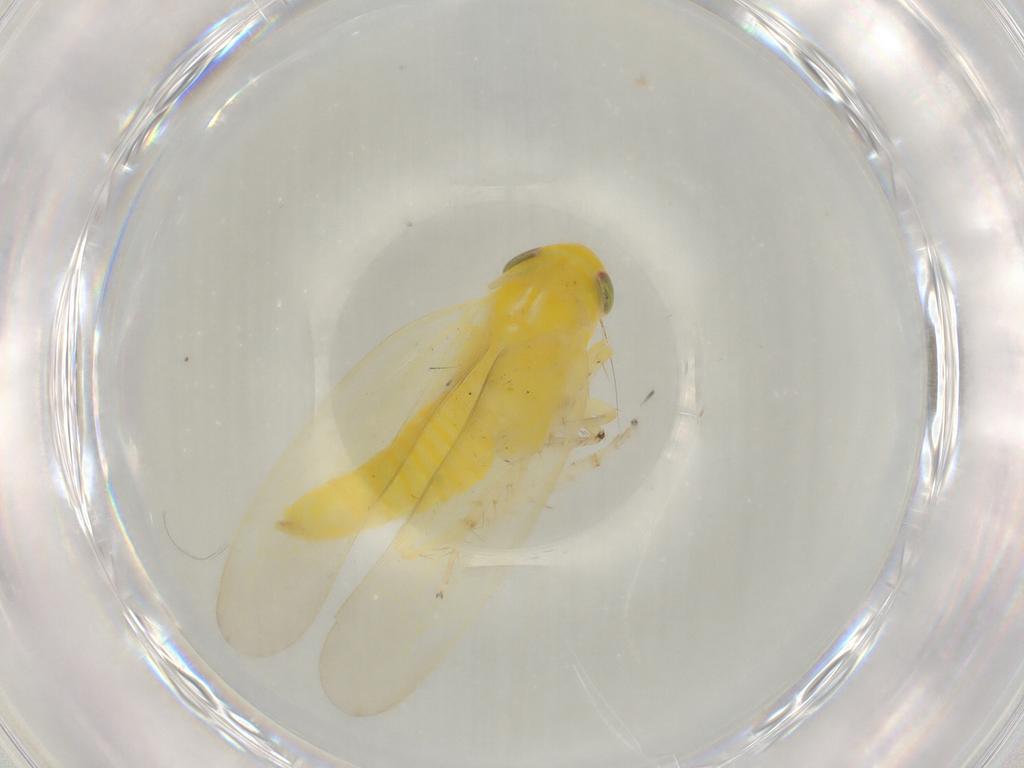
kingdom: Animalia
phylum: Arthropoda
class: Insecta
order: Hemiptera
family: Cicadellidae
